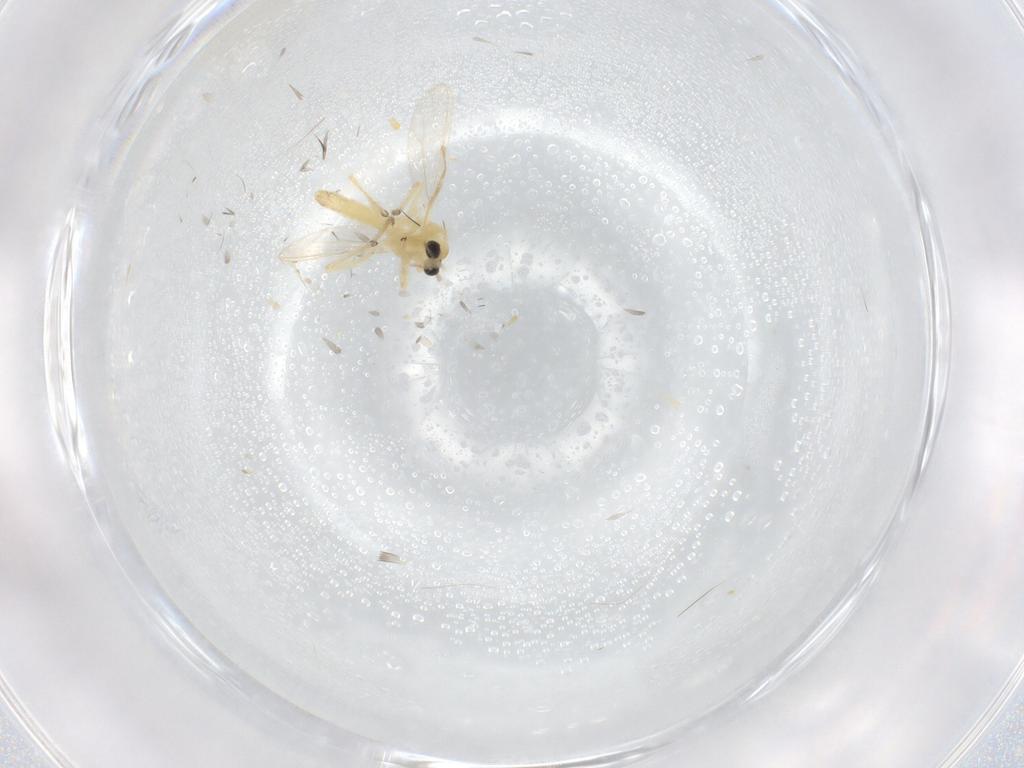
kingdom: Animalia
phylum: Arthropoda
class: Insecta
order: Diptera
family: Chironomidae
